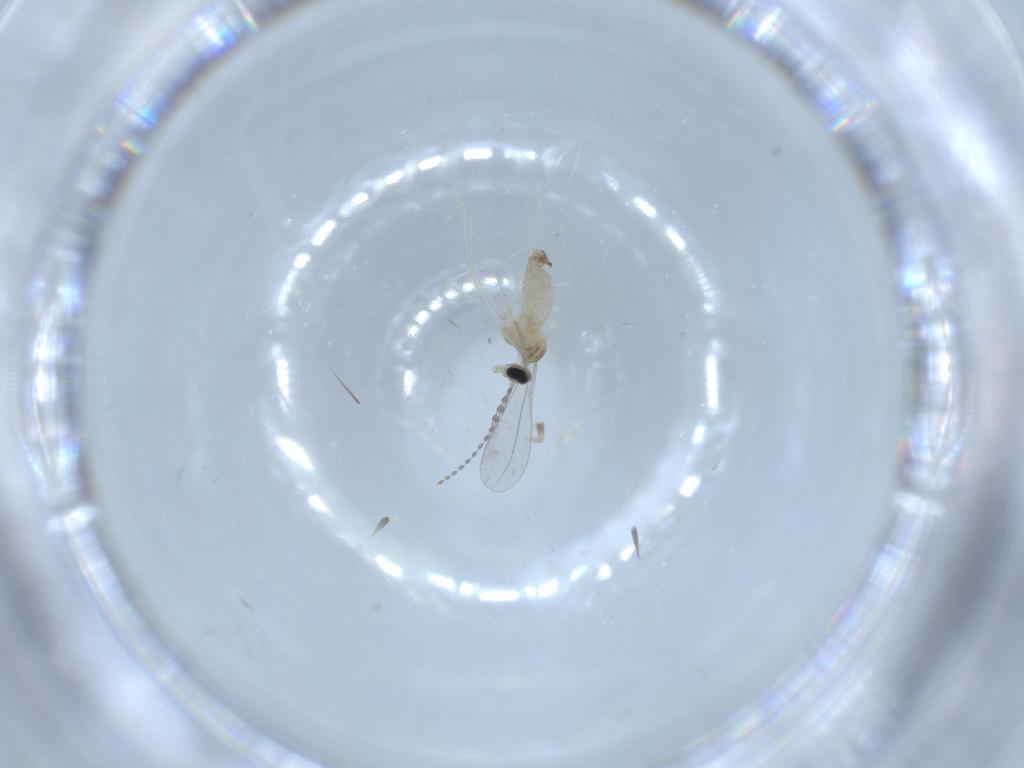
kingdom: Animalia
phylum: Arthropoda
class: Insecta
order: Diptera
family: Cecidomyiidae
